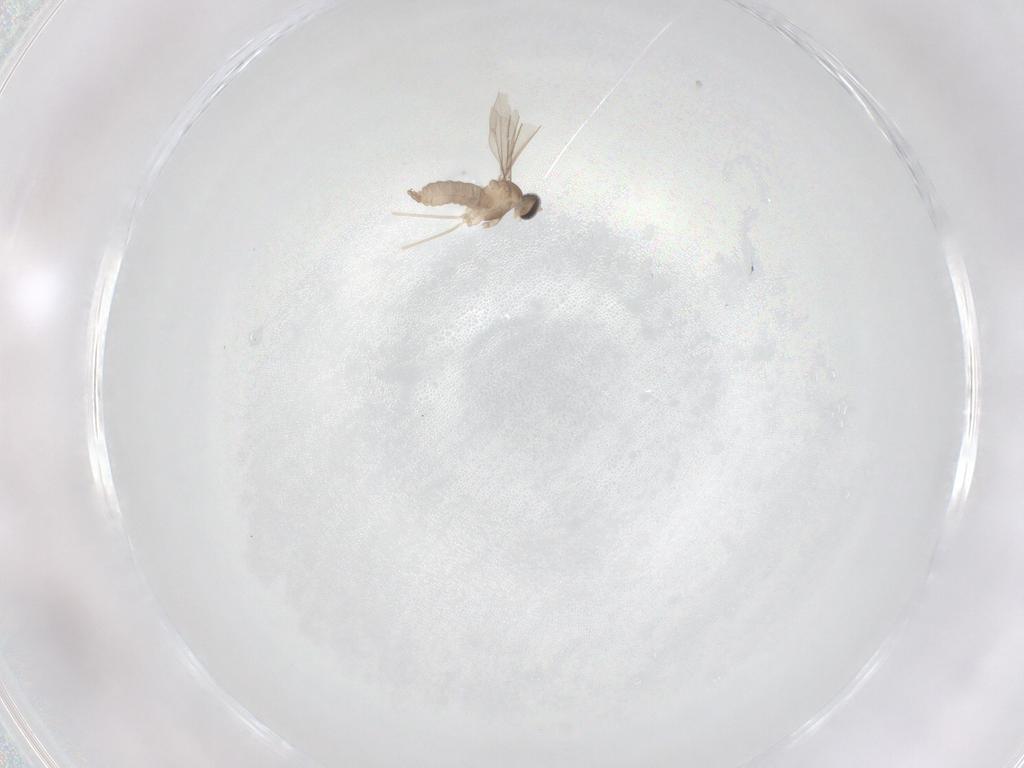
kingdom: Animalia
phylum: Arthropoda
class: Insecta
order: Diptera
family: Cecidomyiidae
